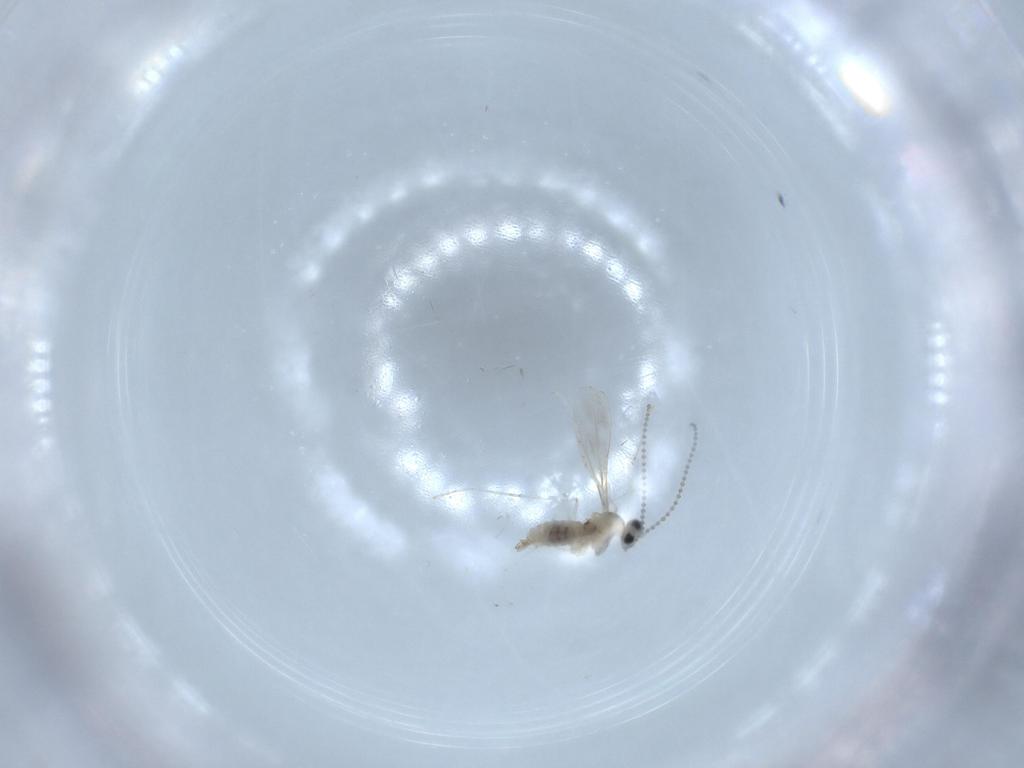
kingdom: Animalia
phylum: Arthropoda
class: Insecta
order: Diptera
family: Cecidomyiidae
